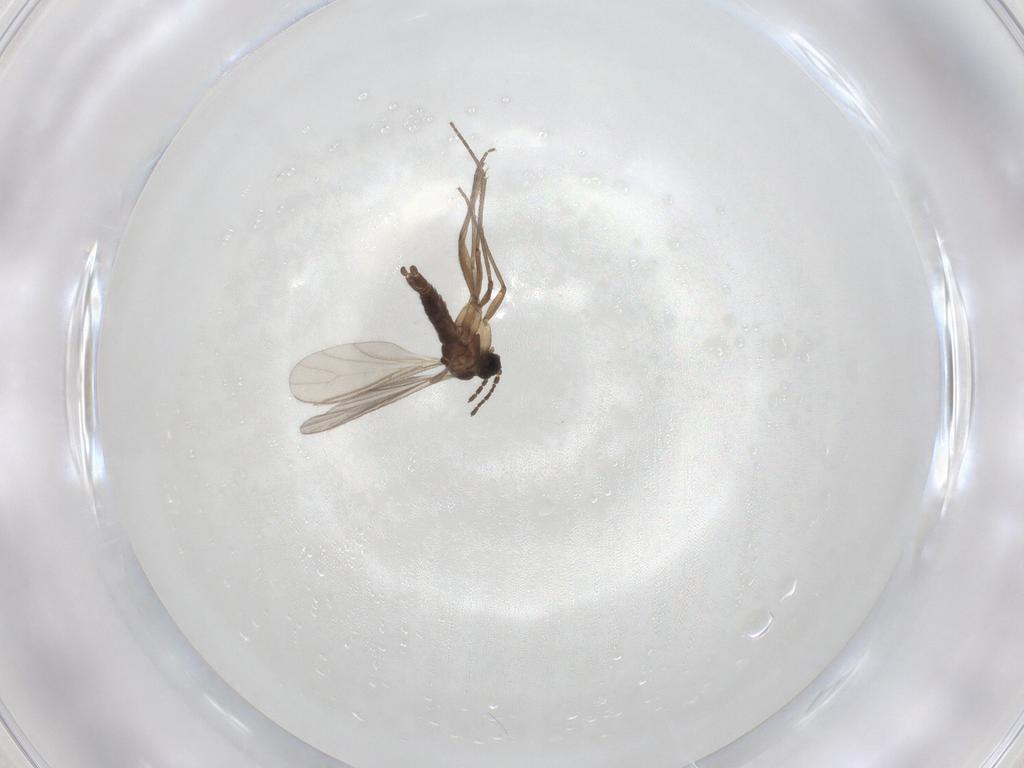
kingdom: Animalia
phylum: Arthropoda
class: Insecta
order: Diptera
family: Sciaridae
